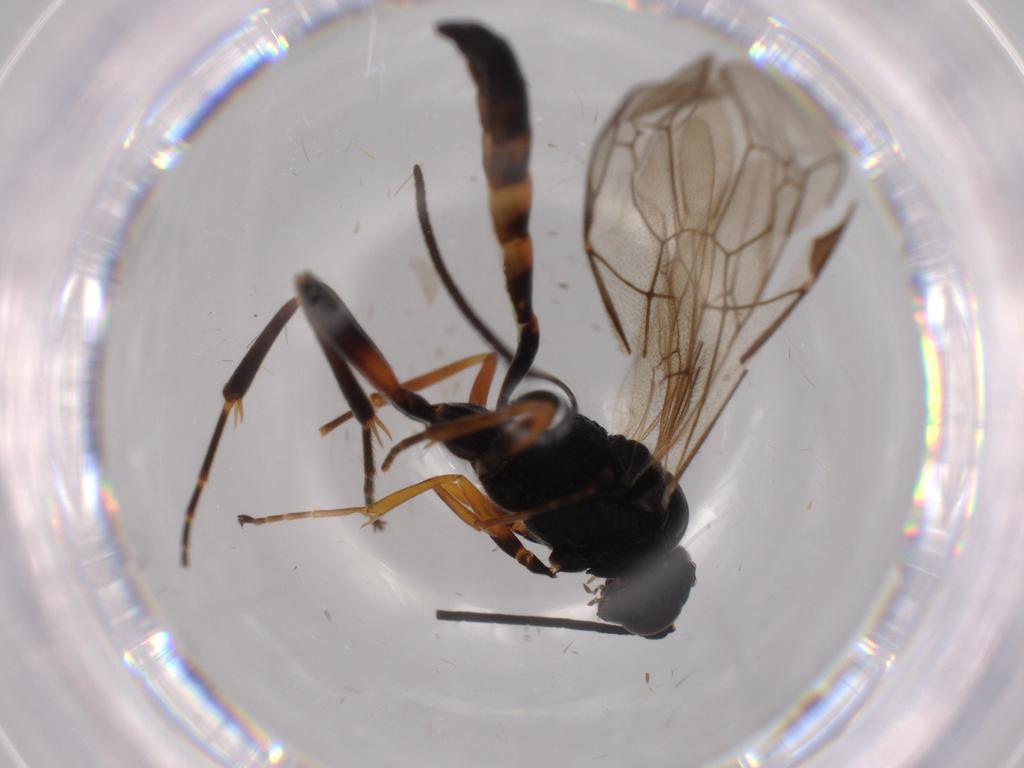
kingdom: Animalia
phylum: Arthropoda
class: Insecta
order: Hymenoptera
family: Ichneumonidae
